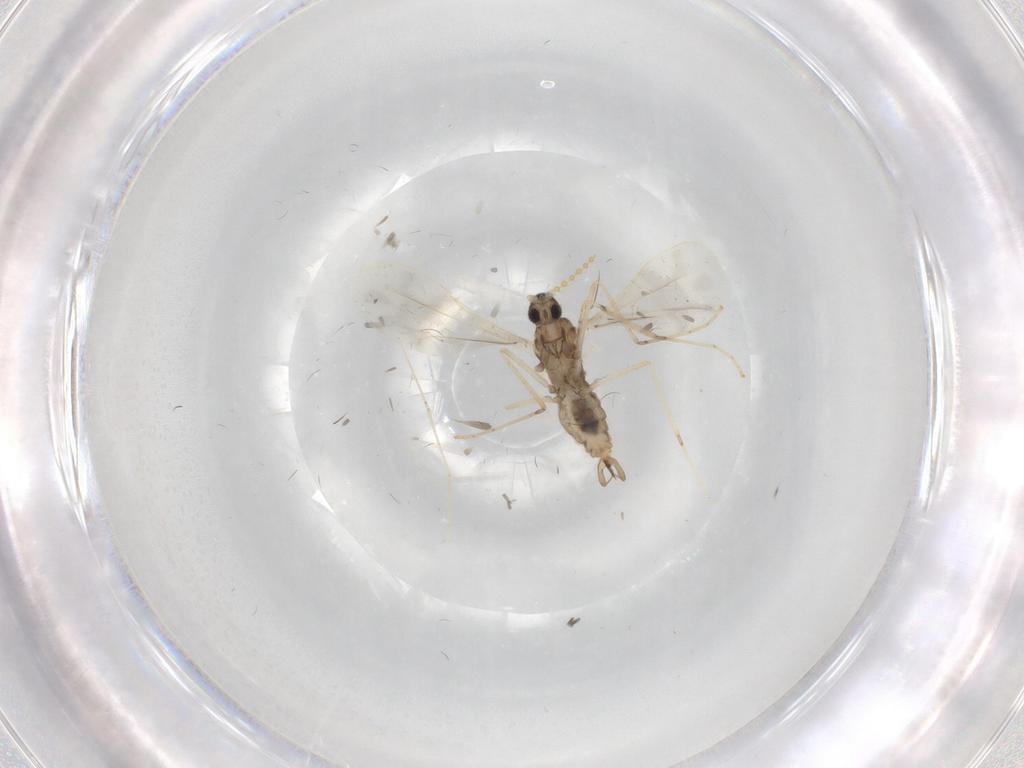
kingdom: Animalia
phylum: Arthropoda
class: Insecta
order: Diptera
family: Cecidomyiidae
